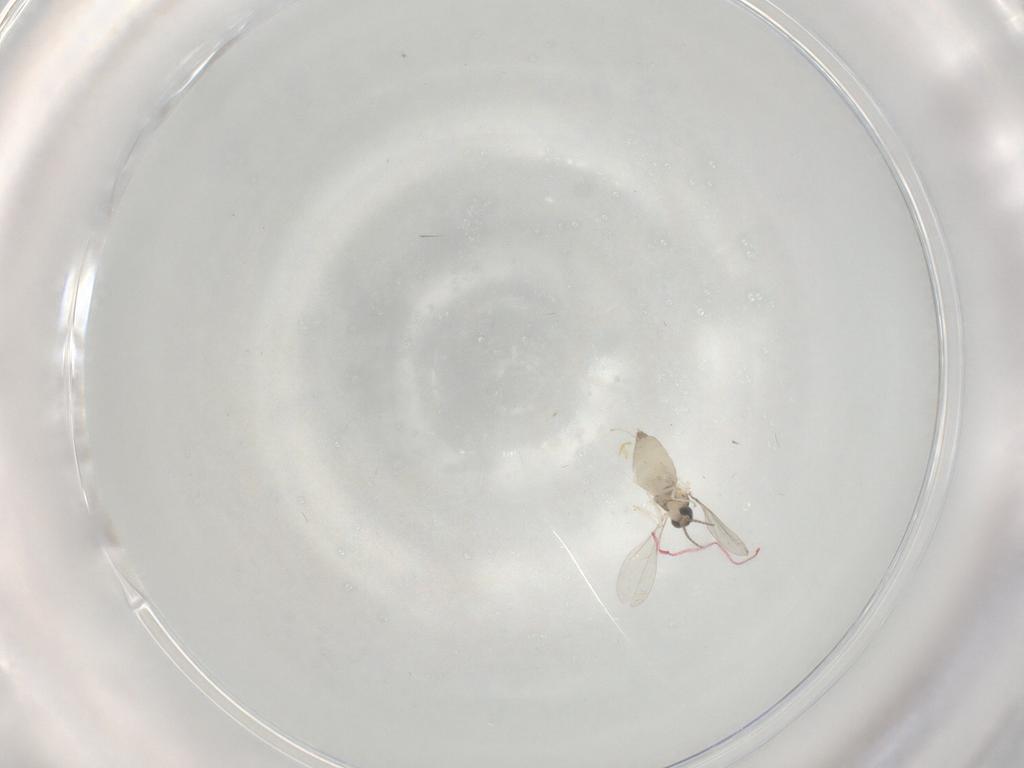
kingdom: Animalia
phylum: Arthropoda
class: Insecta
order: Diptera
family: Chironomidae
